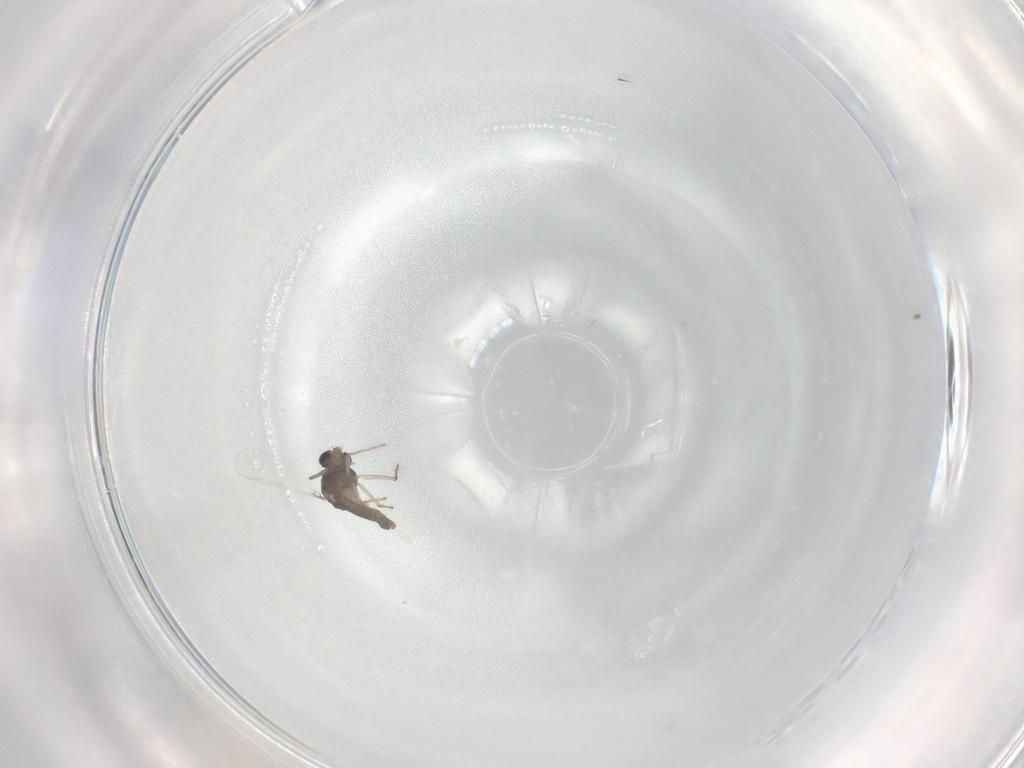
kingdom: Animalia
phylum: Arthropoda
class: Insecta
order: Diptera
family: Chironomidae
